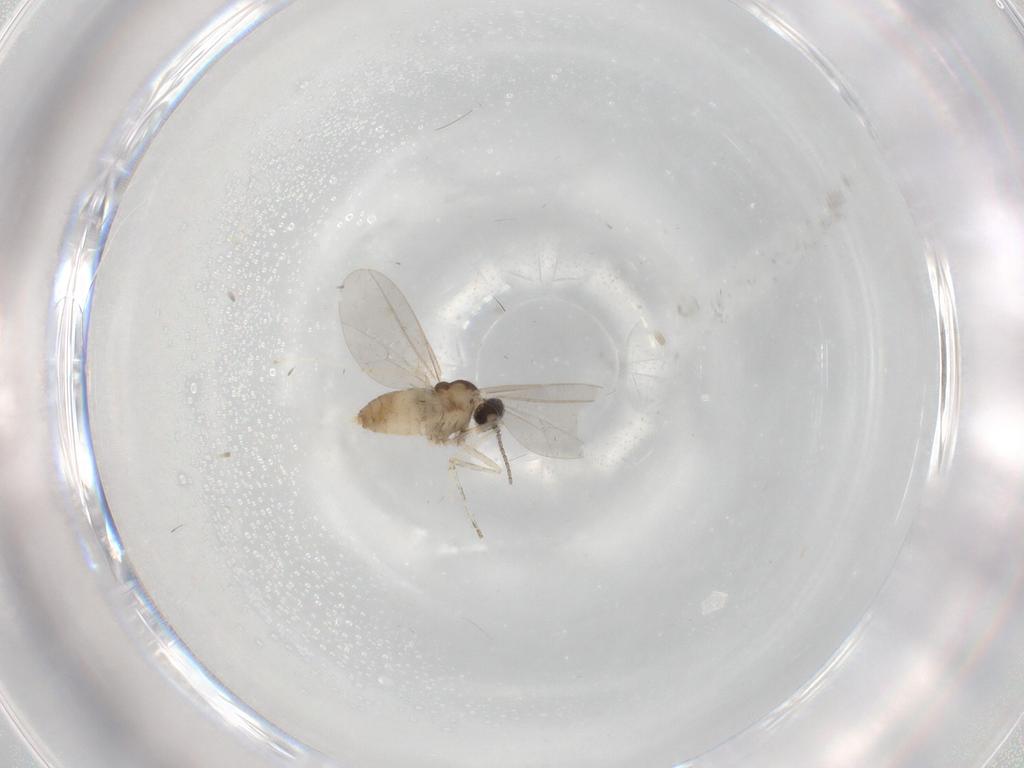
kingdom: Animalia
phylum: Arthropoda
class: Insecta
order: Diptera
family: Cecidomyiidae
